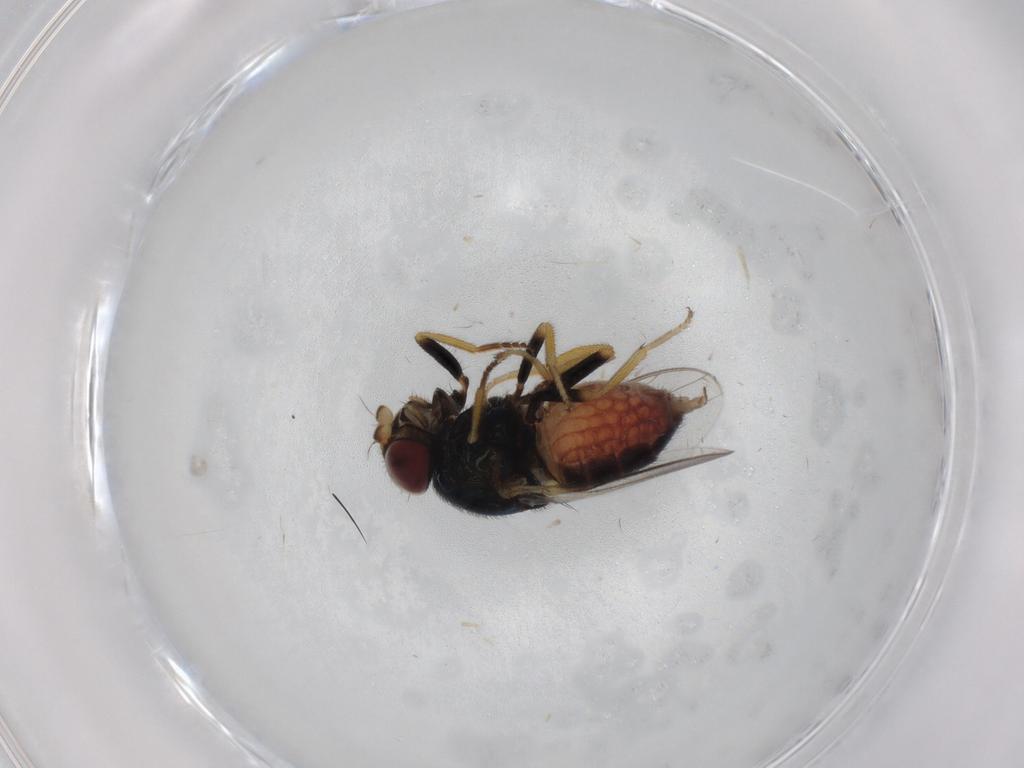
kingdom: Animalia
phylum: Arthropoda
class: Insecta
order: Diptera
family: Chloropidae
